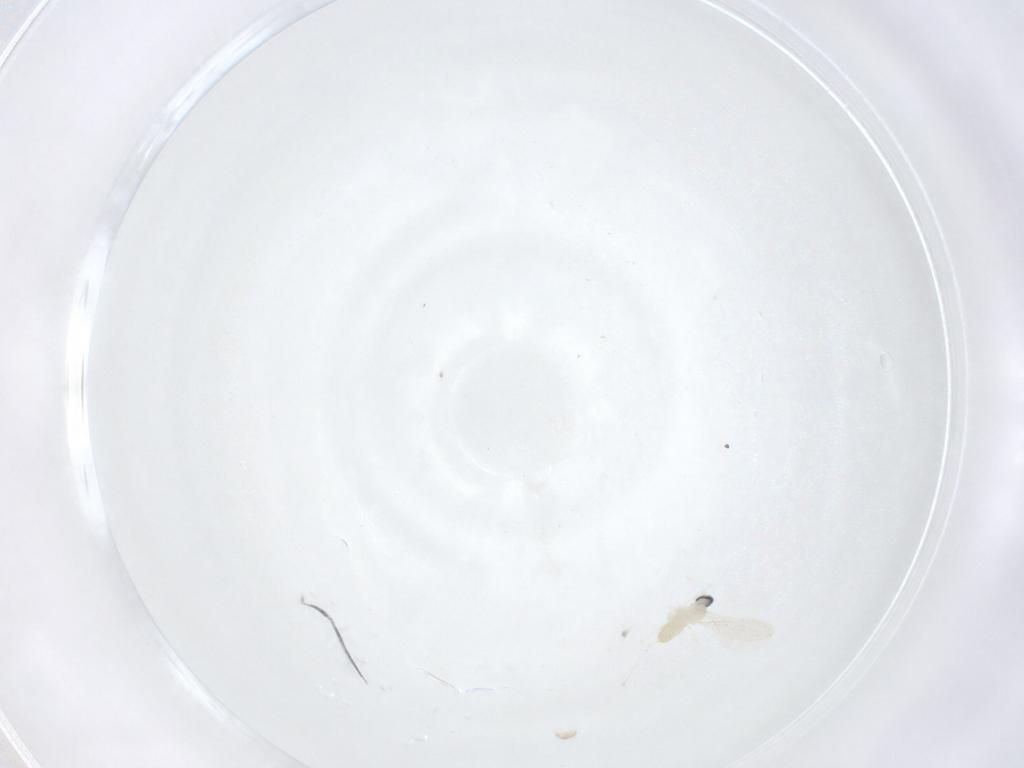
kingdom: Animalia
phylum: Arthropoda
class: Insecta
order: Diptera
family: Cecidomyiidae
